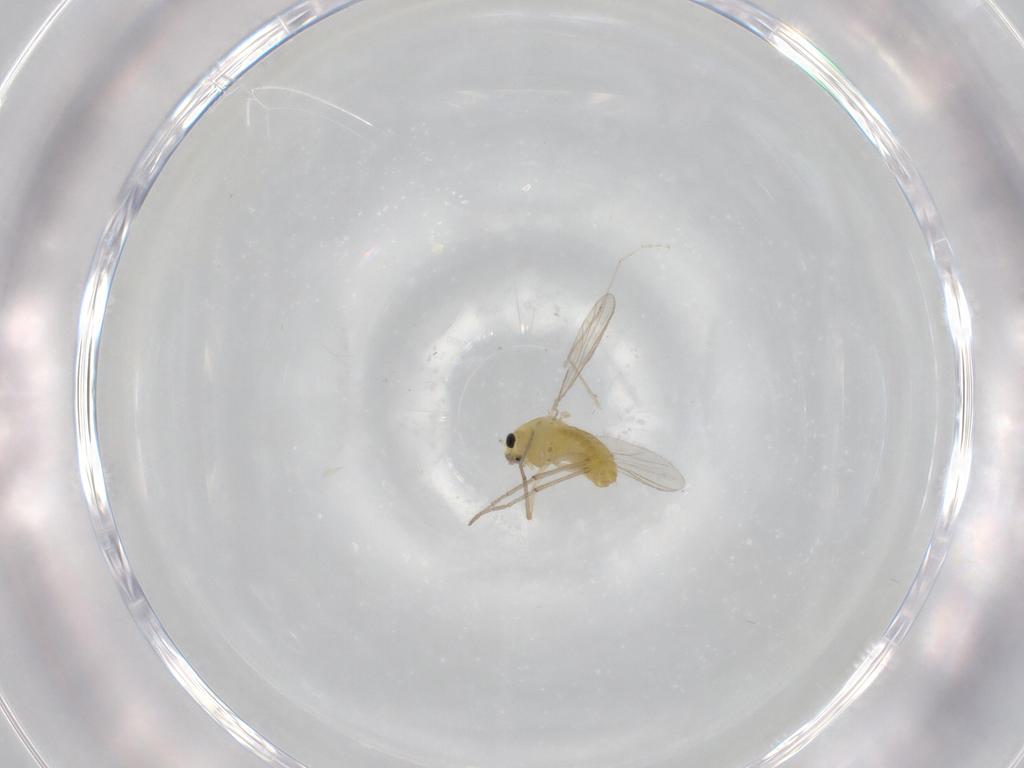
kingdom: Animalia
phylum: Arthropoda
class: Insecta
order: Diptera
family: Chironomidae
